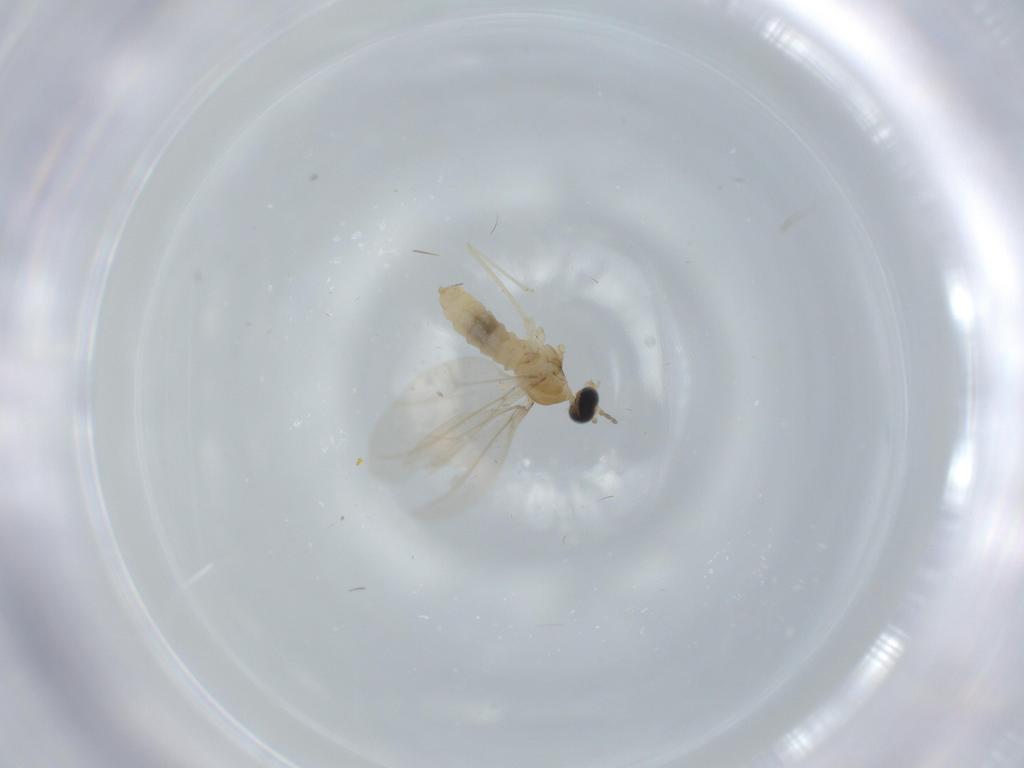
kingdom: Animalia
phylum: Arthropoda
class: Insecta
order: Diptera
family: Cecidomyiidae
